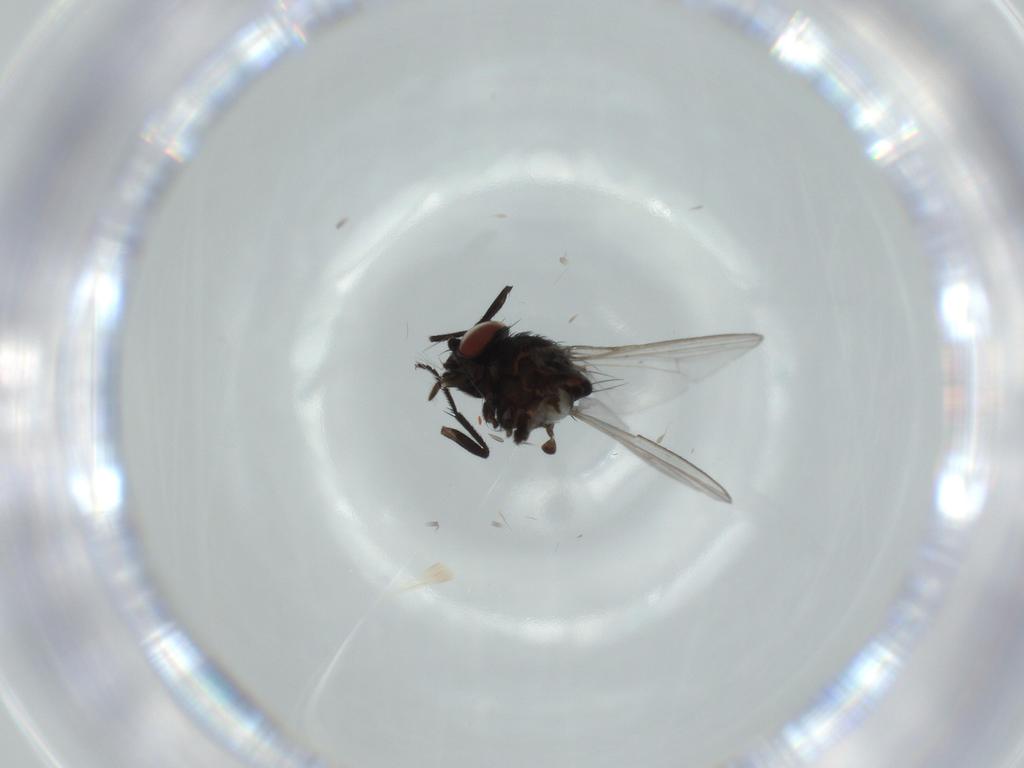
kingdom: Animalia
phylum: Arthropoda
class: Insecta
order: Diptera
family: Milichiidae
